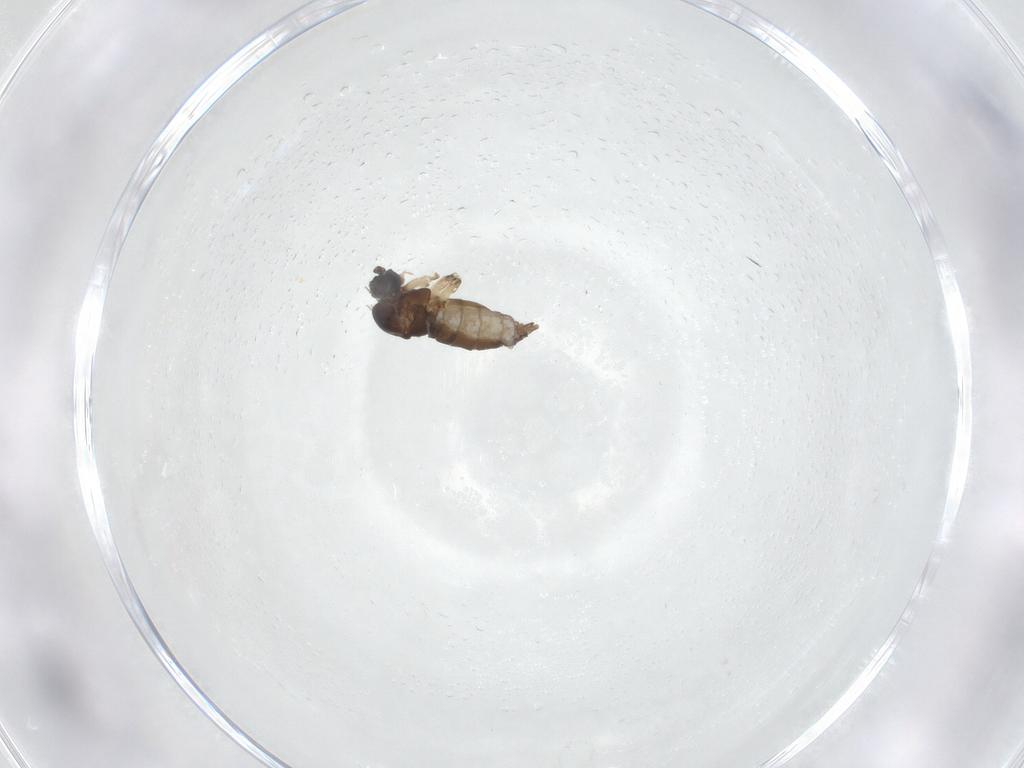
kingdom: Animalia
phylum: Arthropoda
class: Insecta
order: Diptera
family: Sciaridae
